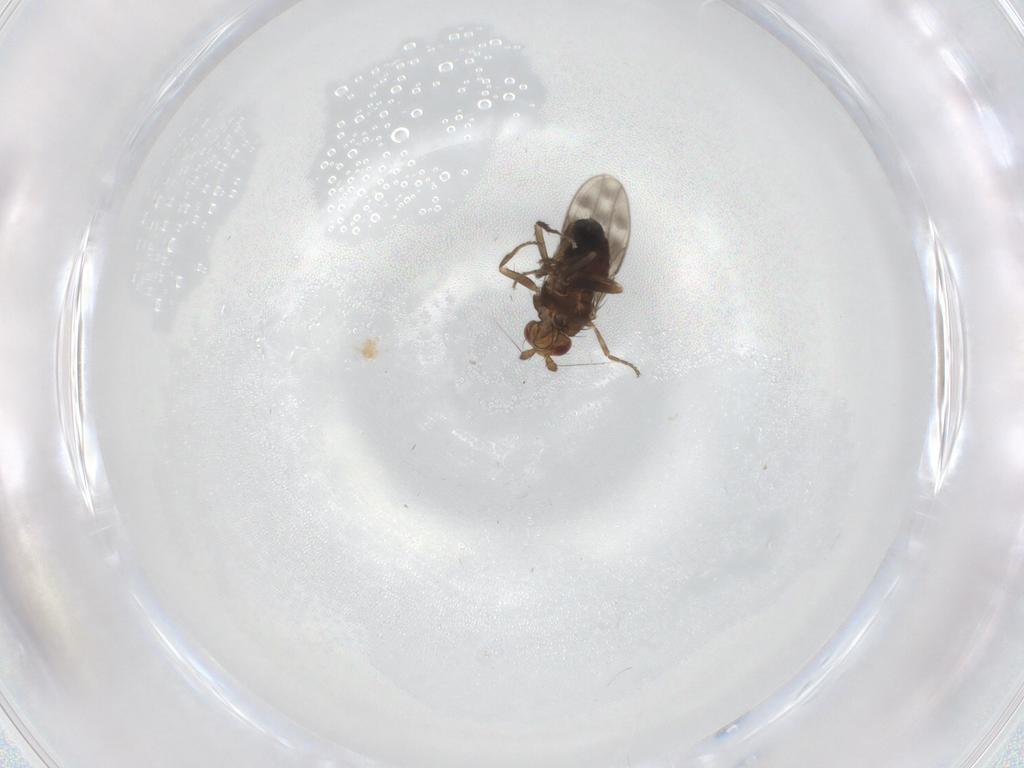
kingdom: Animalia
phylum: Arthropoda
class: Insecta
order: Diptera
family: Sphaeroceridae
